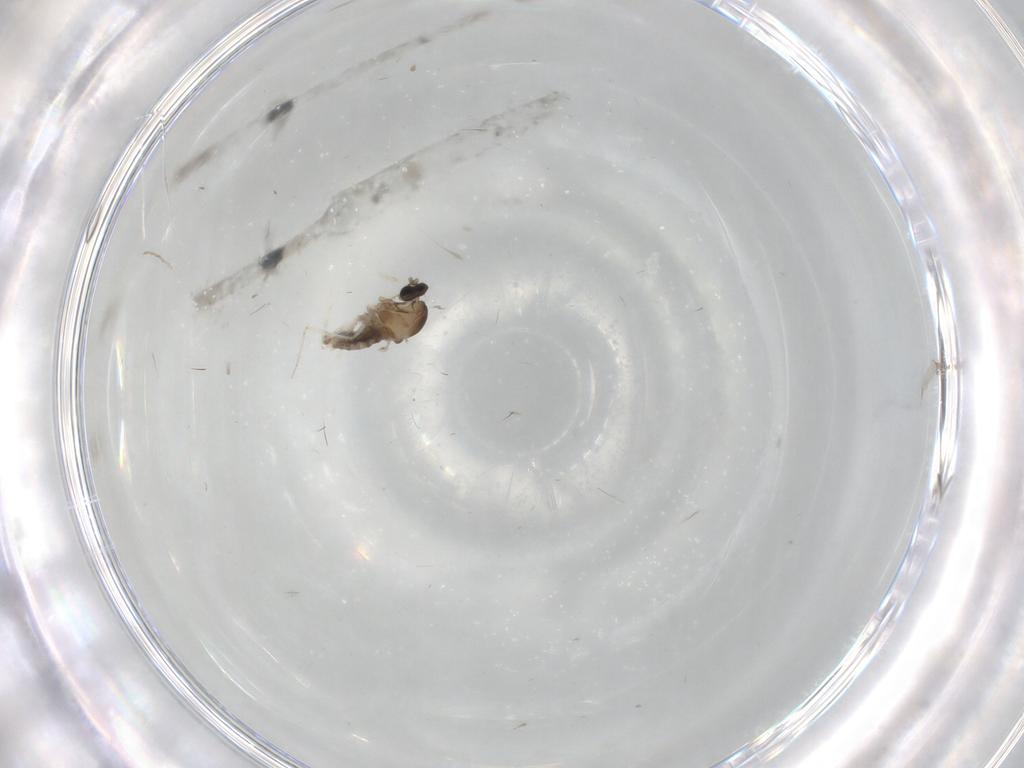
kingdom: Animalia
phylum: Arthropoda
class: Insecta
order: Diptera
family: Cecidomyiidae
